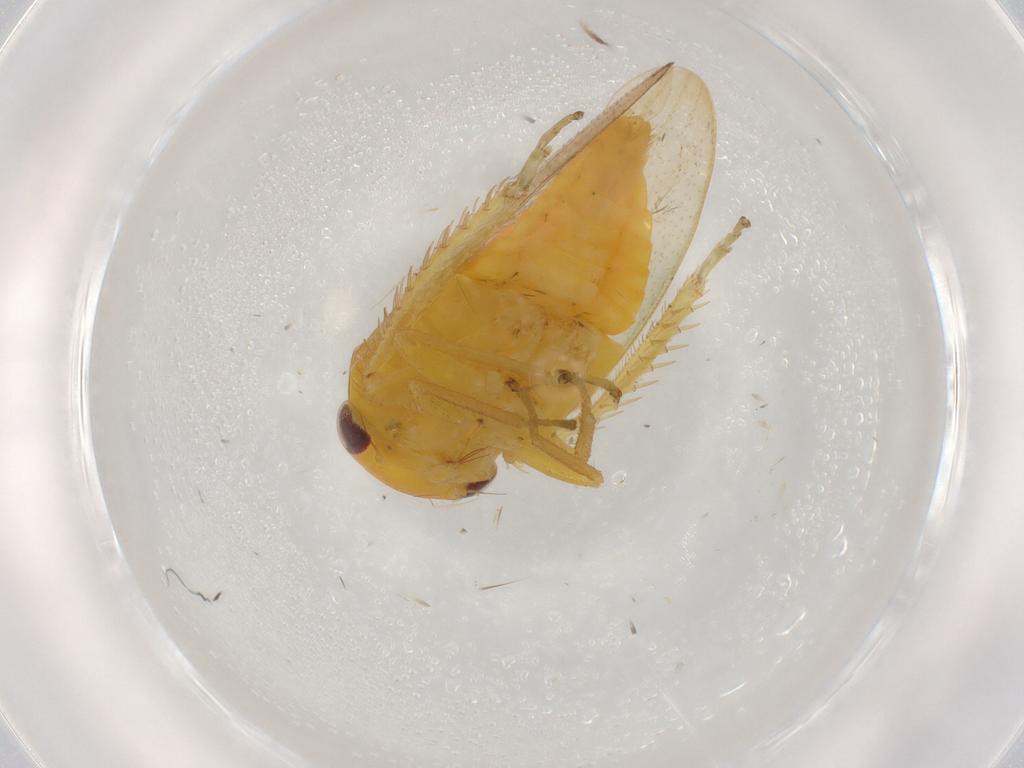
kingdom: Animalia
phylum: Arthropoda
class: Insecta
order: Hemiptera
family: Cicadellidae
